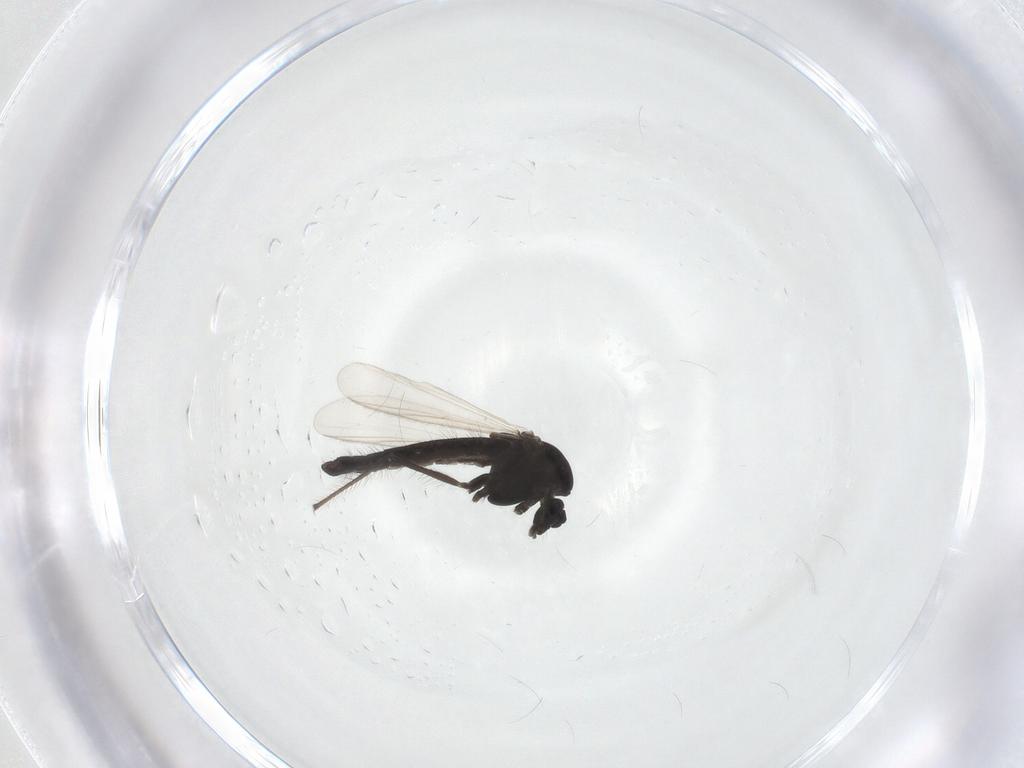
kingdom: Animalia
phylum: Arthropoda
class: Insecta
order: Diptera
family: Chironomidae
